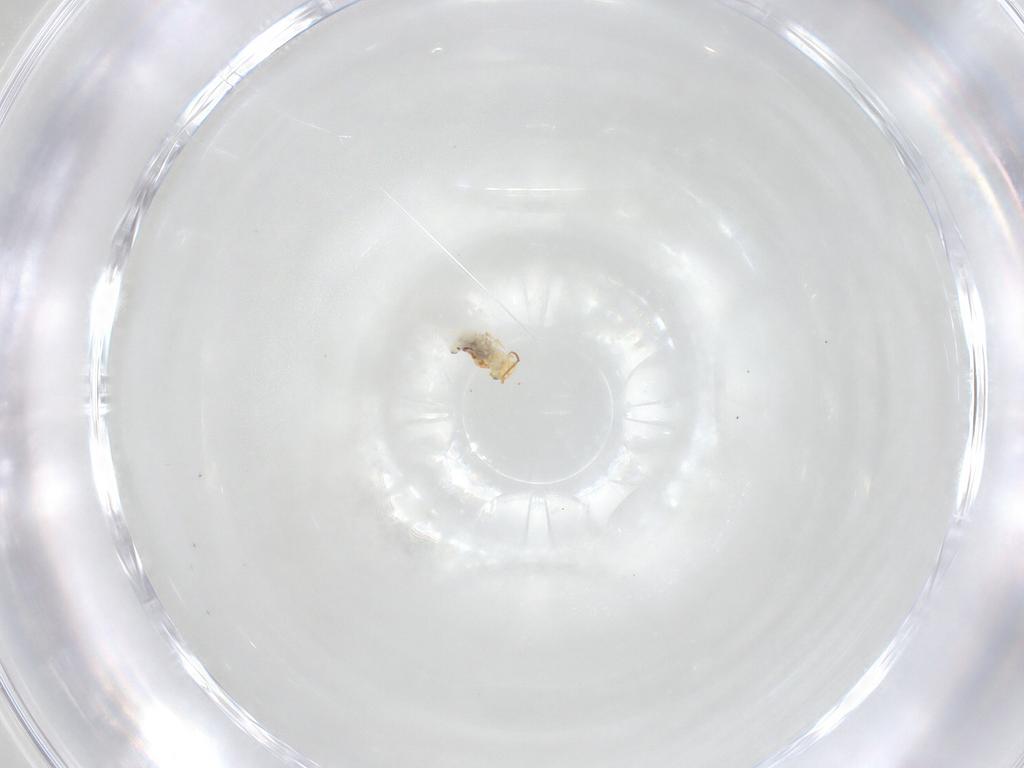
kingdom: Animalia
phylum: Arthropoda
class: Collembola
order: Symphypleona
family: Bourletiellidae
